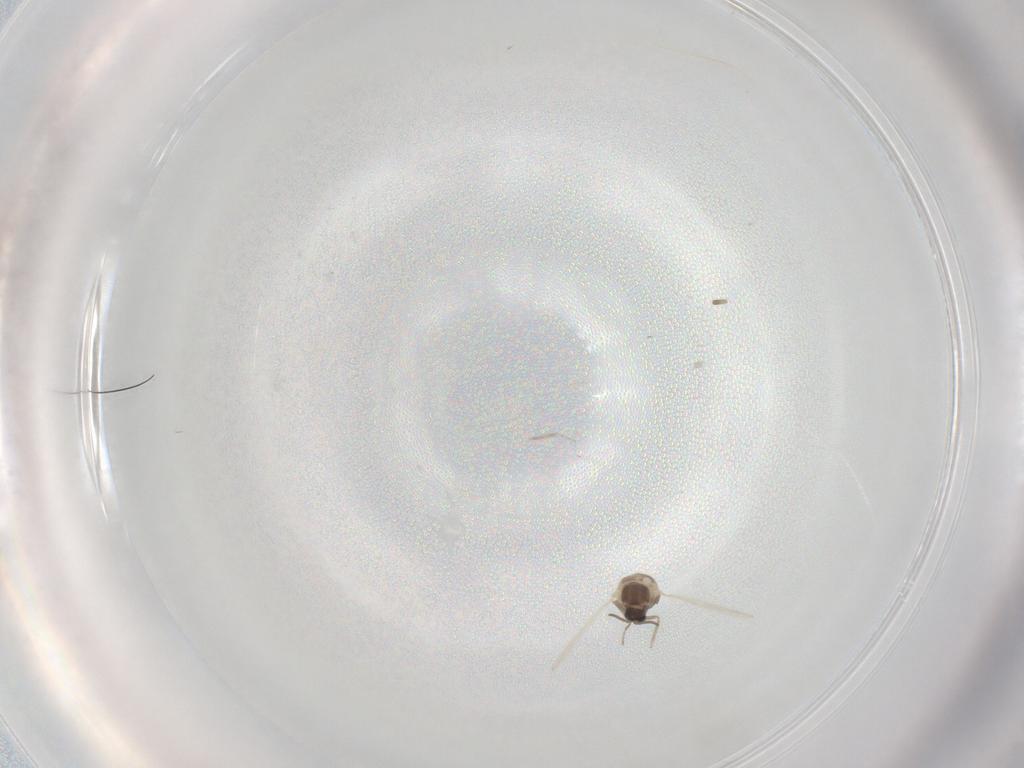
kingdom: Animalia
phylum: Arthropoda
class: Insecta
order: Diptera
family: Cecidomyiidae
